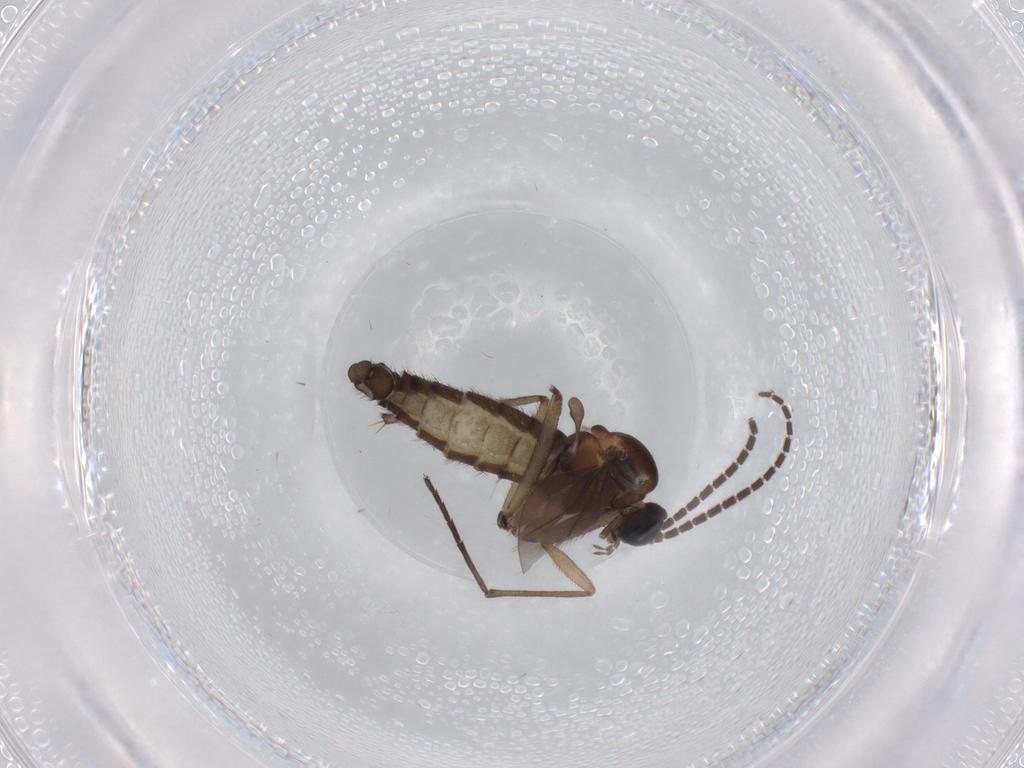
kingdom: Animalia
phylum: Arthropoda
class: Insecta
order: Diptera
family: Sciaridae
